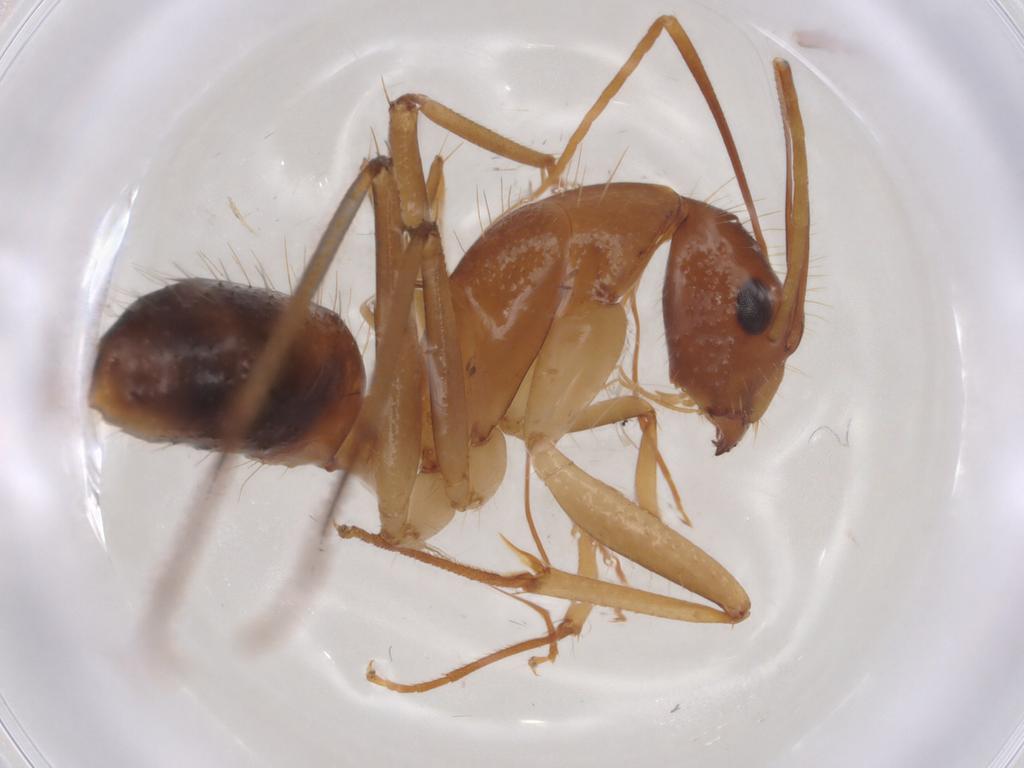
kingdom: Animalia
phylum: Arthropoda
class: Insecta
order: Hymenoptera
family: Formicidae
